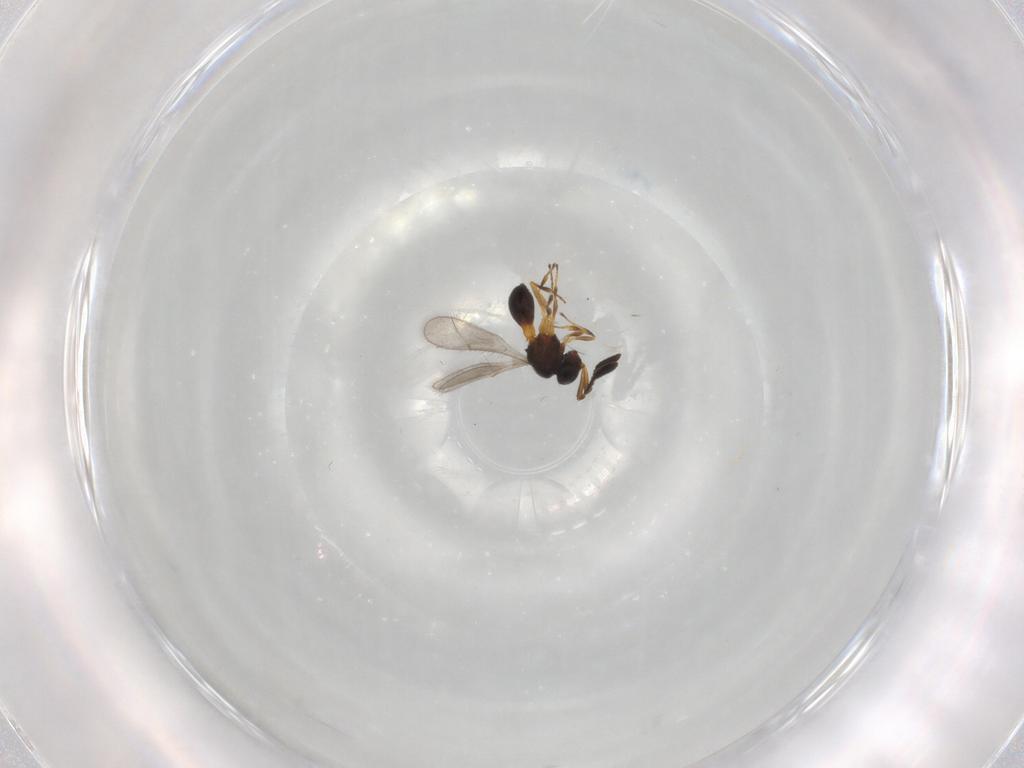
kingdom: Animalia
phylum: Arthropoda
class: Insecta
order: Hymenoptera
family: Scelionidae
